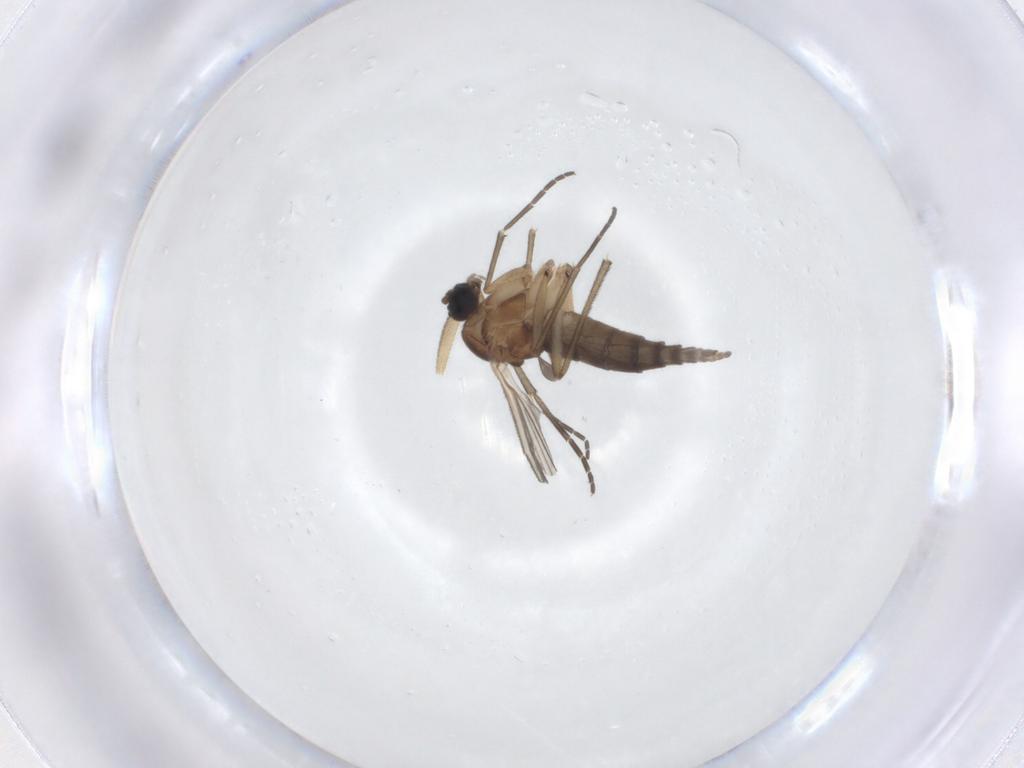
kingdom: Animalia
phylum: Arthropoda
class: Insecta
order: Diptera
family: Sciaridae
